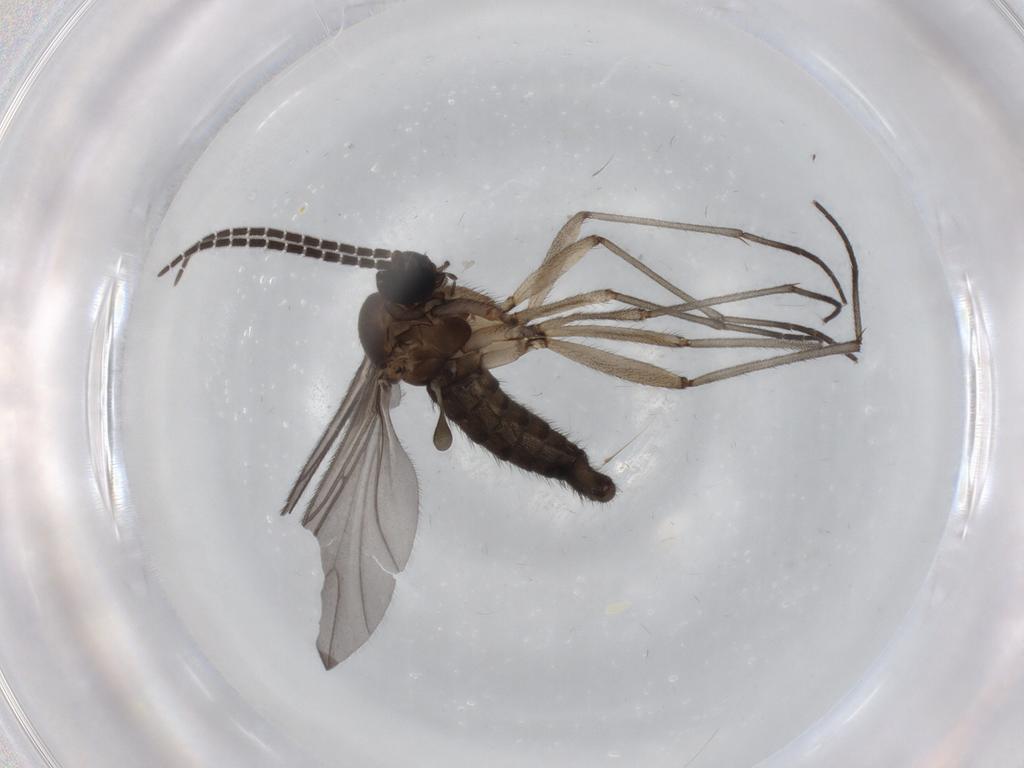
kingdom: Animalia
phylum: Arthropoda
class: Insecta
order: Diptera
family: Sciaridae
